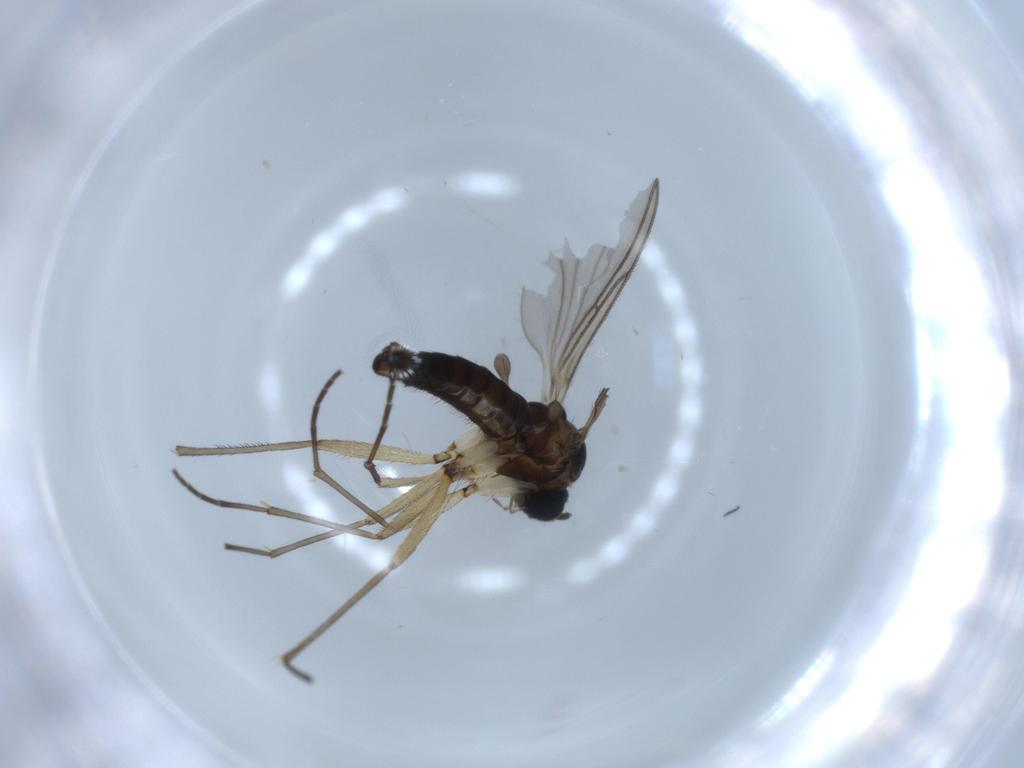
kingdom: Animalia
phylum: Arthropoda
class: Insecta
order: Diptera
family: Sciaridae
